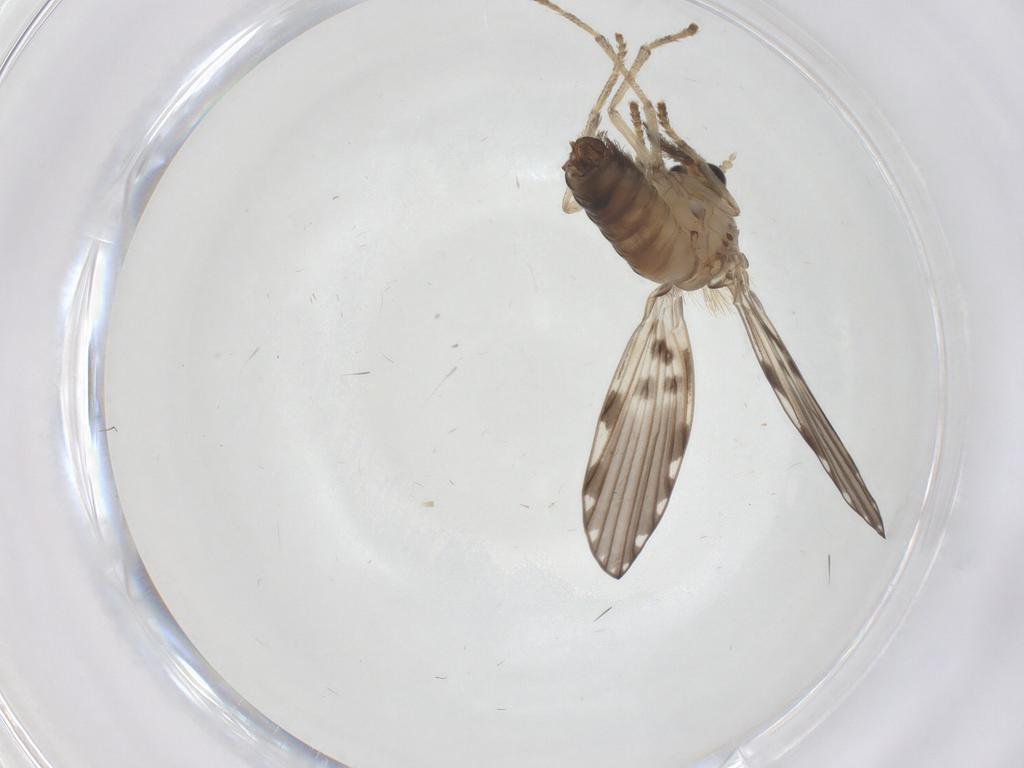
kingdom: Animalia
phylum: Arthropoda
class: Insecta
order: Diptera
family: Psychodidae
